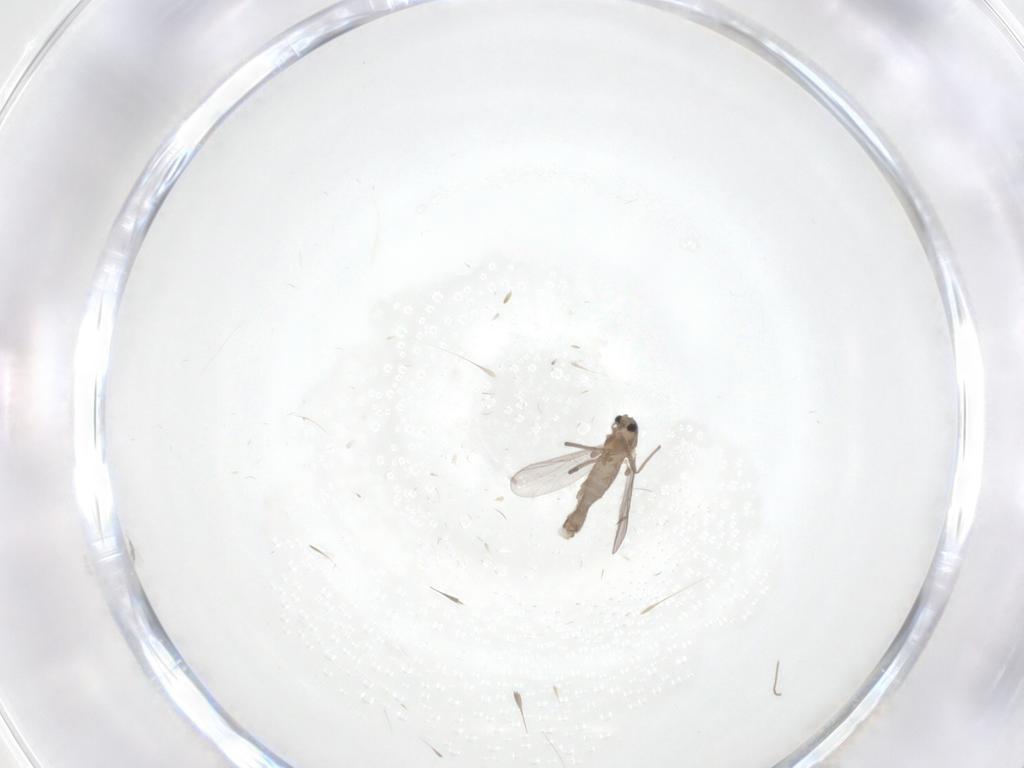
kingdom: Animalia
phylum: Arthropoda
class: Insecta
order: Diptera
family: Chironomidae
